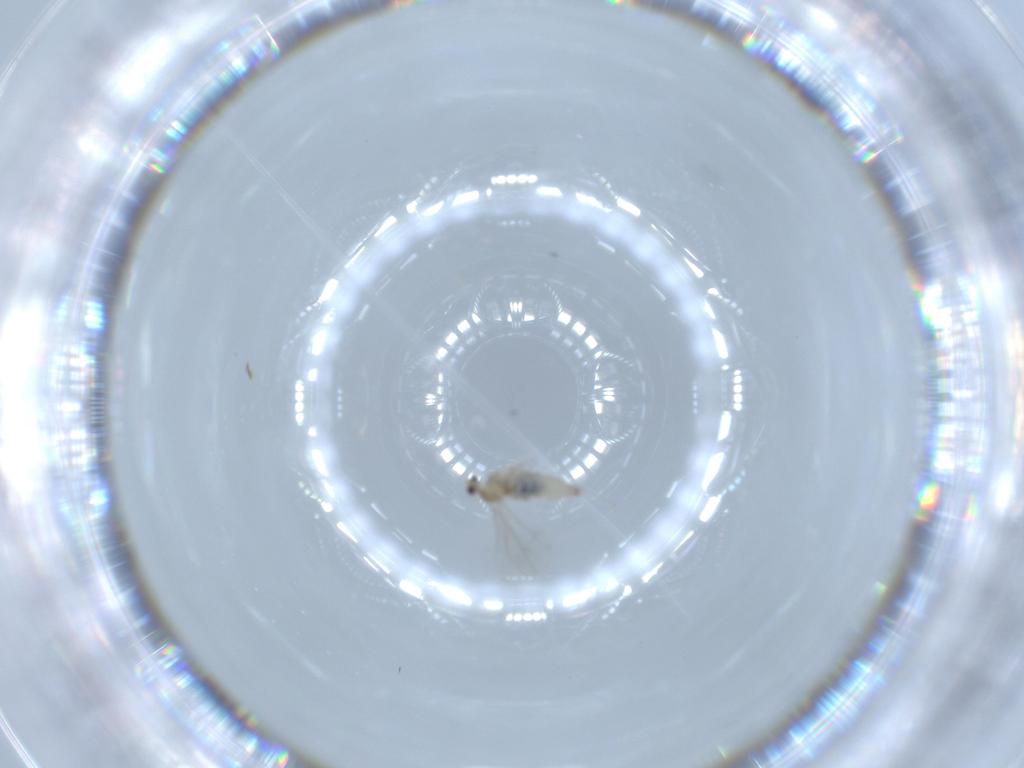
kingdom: Animalia
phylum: Arthropoda
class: Insecta
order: Diptera
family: Cecidomyiidae
